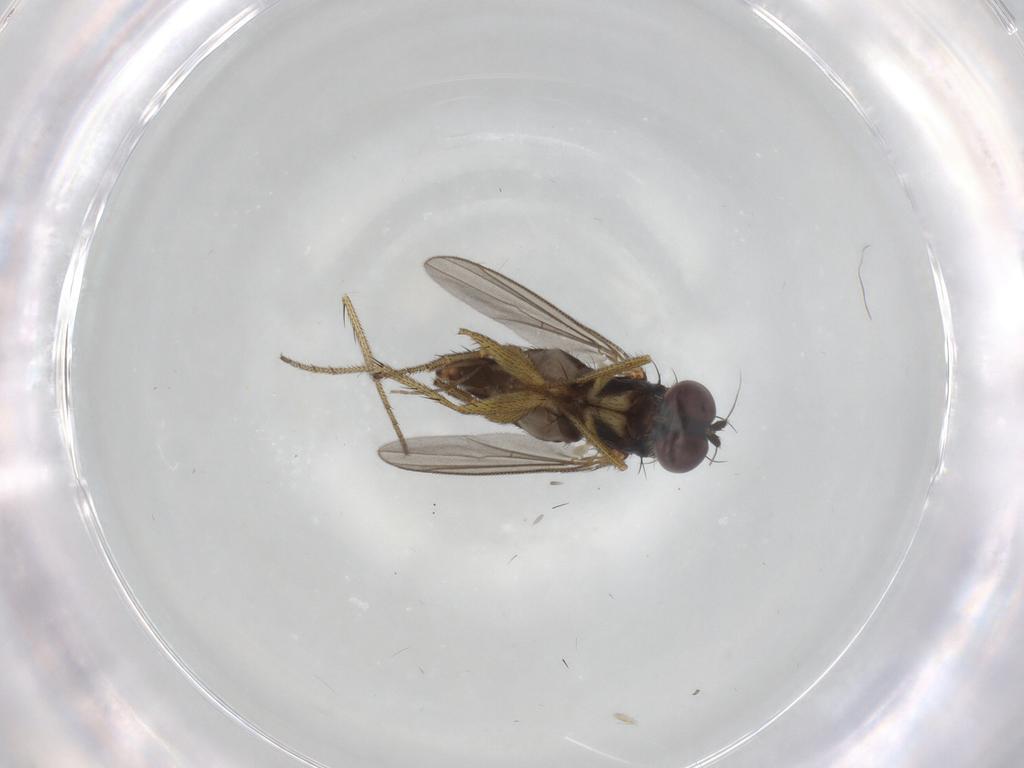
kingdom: Animalia
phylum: Arthropoda
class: Insecta
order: Diptera
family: Chironomidae
